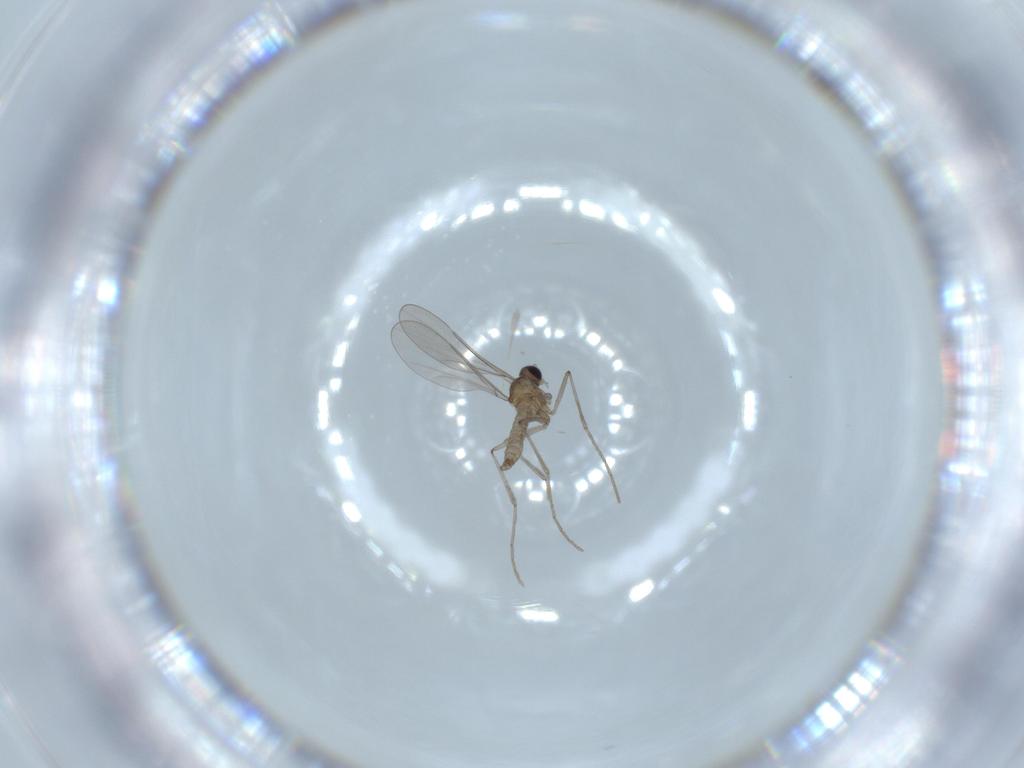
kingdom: Animalia
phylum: Arthropoda
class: Insecta
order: Diptera
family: Cecidomyiidae
